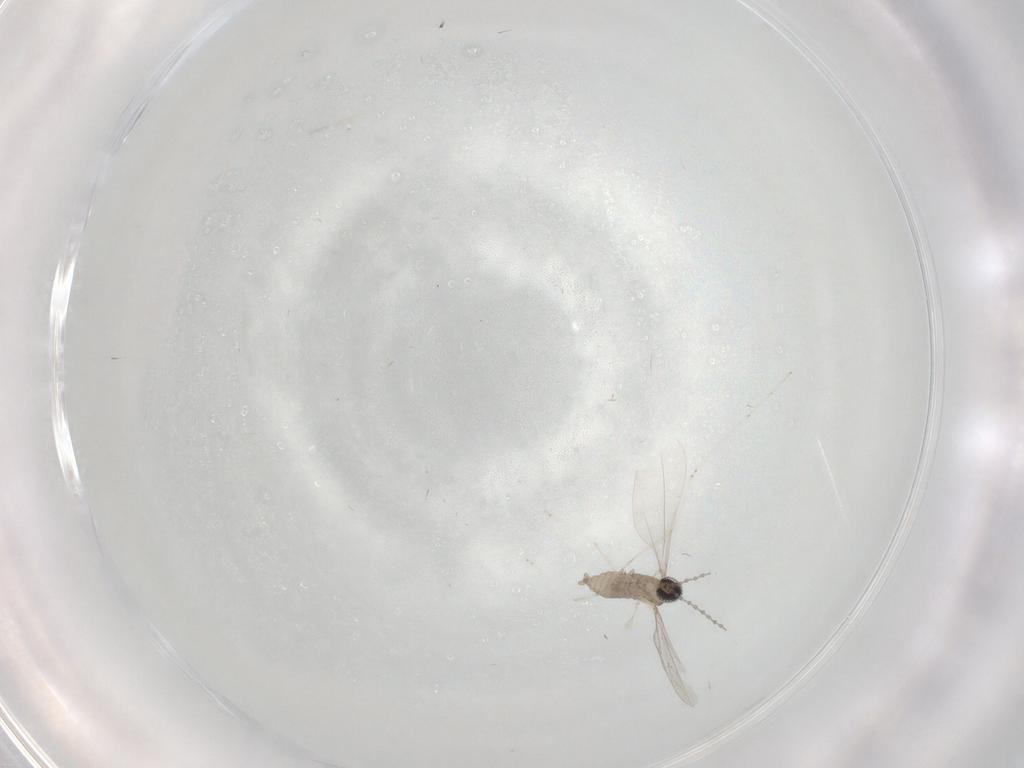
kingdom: Animalia
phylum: Arthropoda
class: Insecta
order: Diptera
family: Cecidomyiidae
